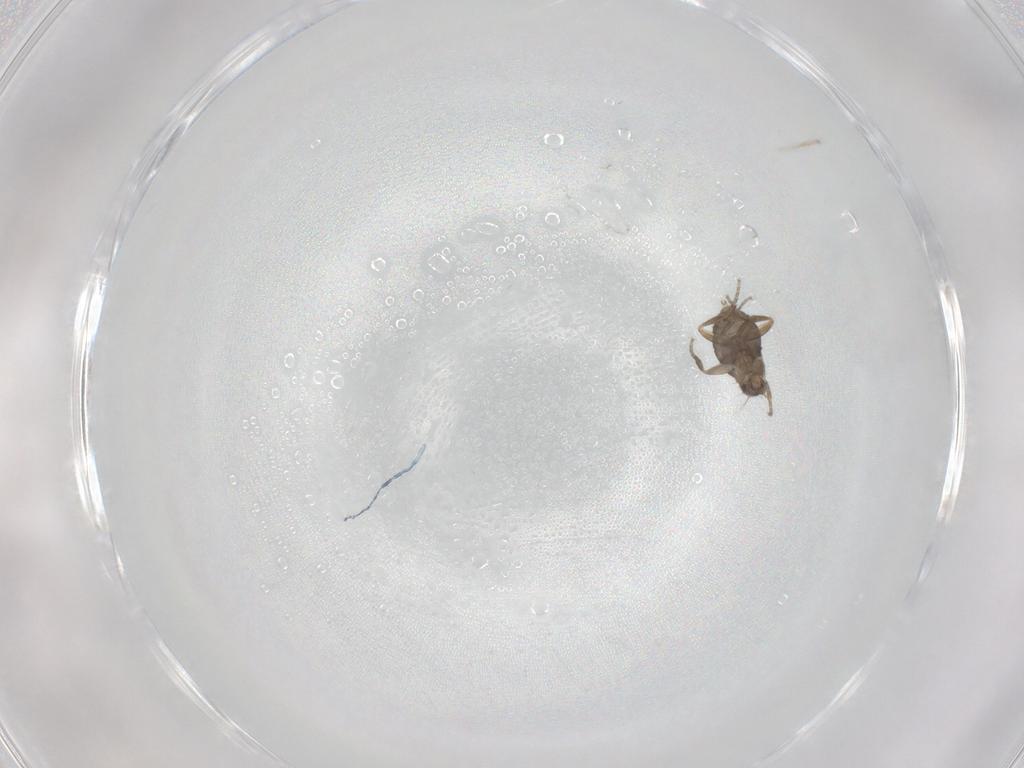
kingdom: Animalia
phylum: Arthropoda
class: Insecta
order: Diptera
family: Phoridae
